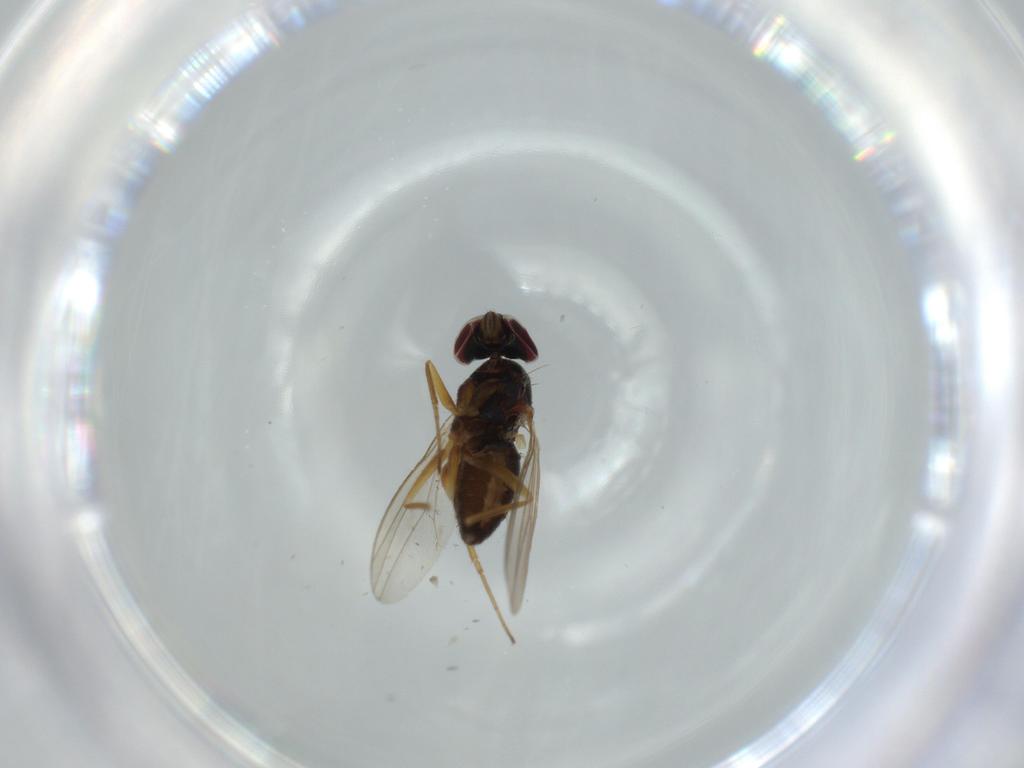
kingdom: Animalia
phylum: Arthropoda
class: Insecta
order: Diptera
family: Dolichopodidae
